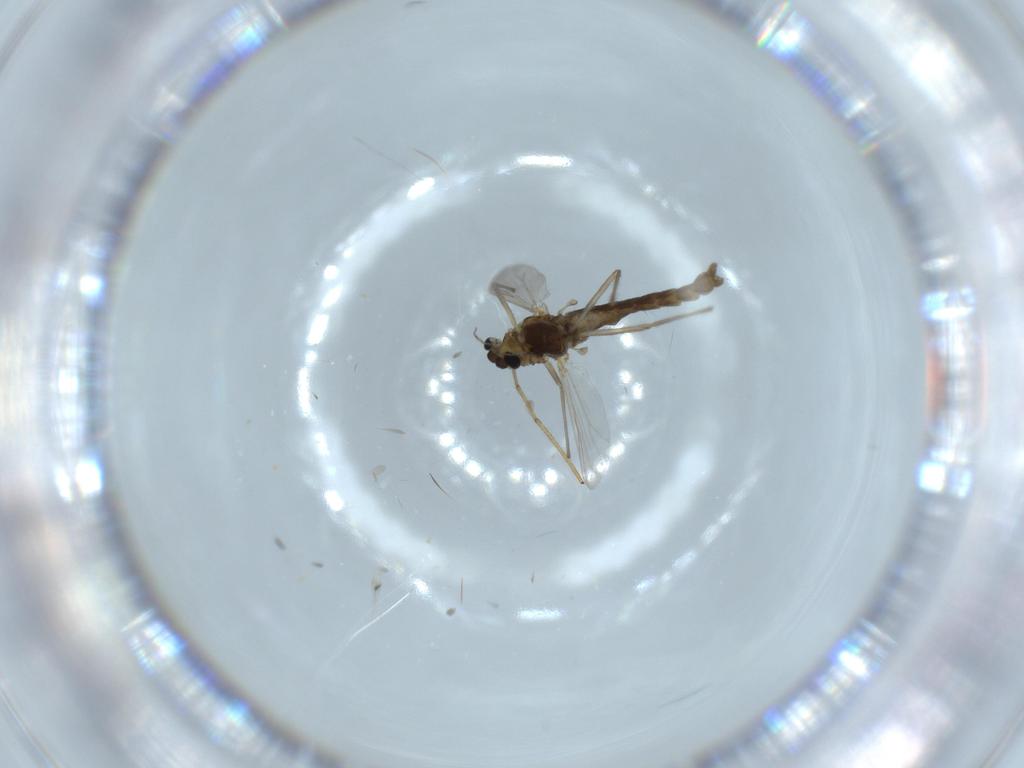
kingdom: Animalia
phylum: Arthropoda
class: Insecta
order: Diptera
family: Chironomidae
